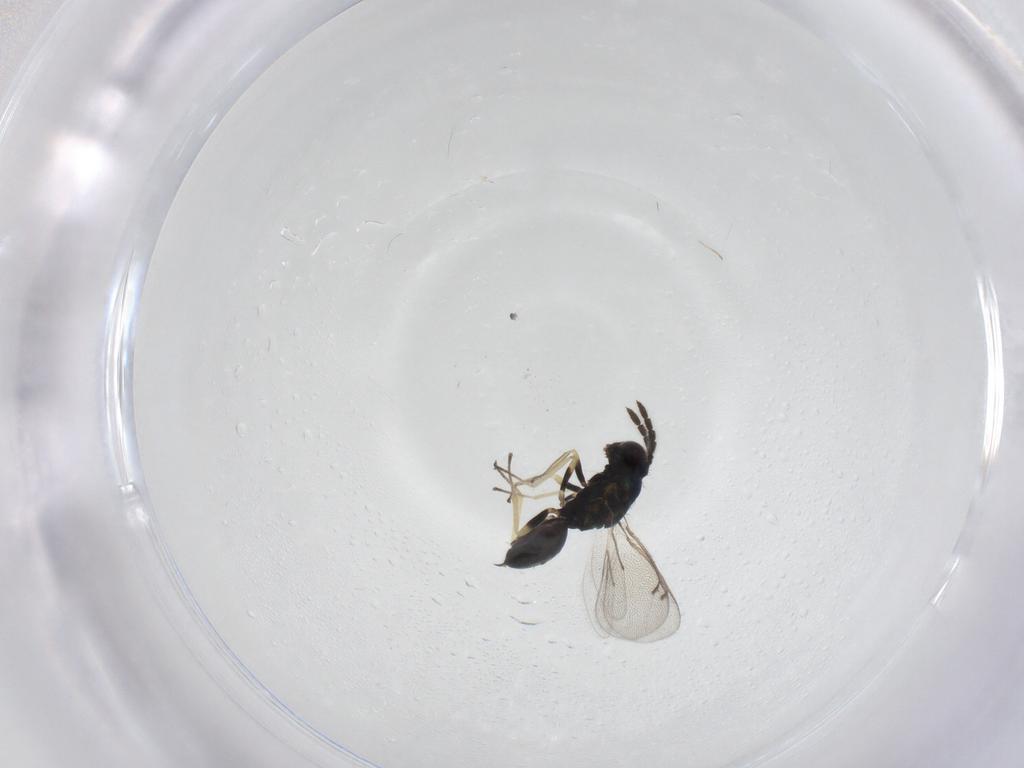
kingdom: Animalia
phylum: Arthropoda
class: Insecta
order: Hymenoptera
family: Eulophidae
